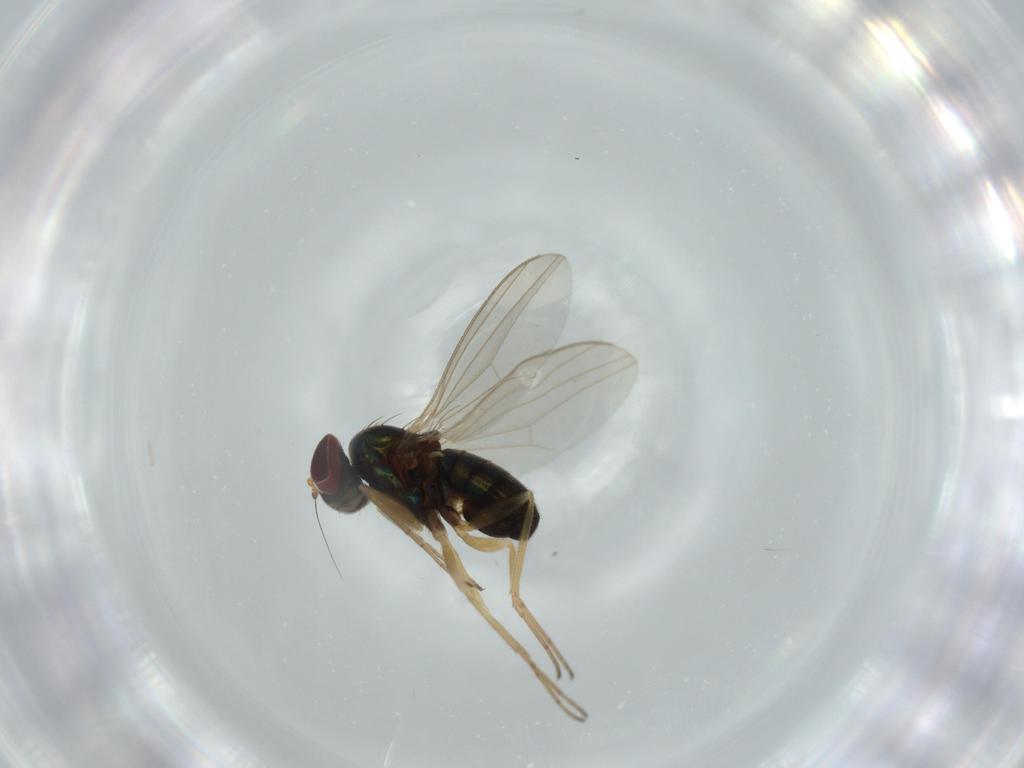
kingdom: Animalia
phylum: Arthropoda
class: Insecta
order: Diptera
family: Dolichopodidae
